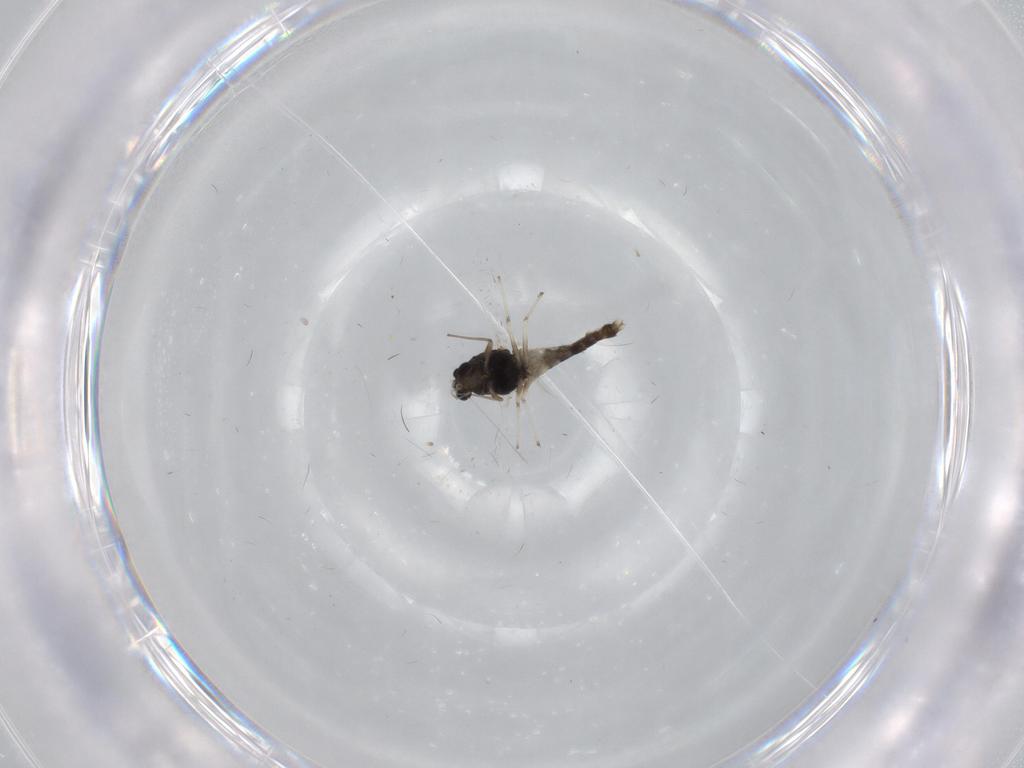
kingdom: Animalia
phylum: Arthropoda
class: Insecta
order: Diptera
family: Chironomidae
